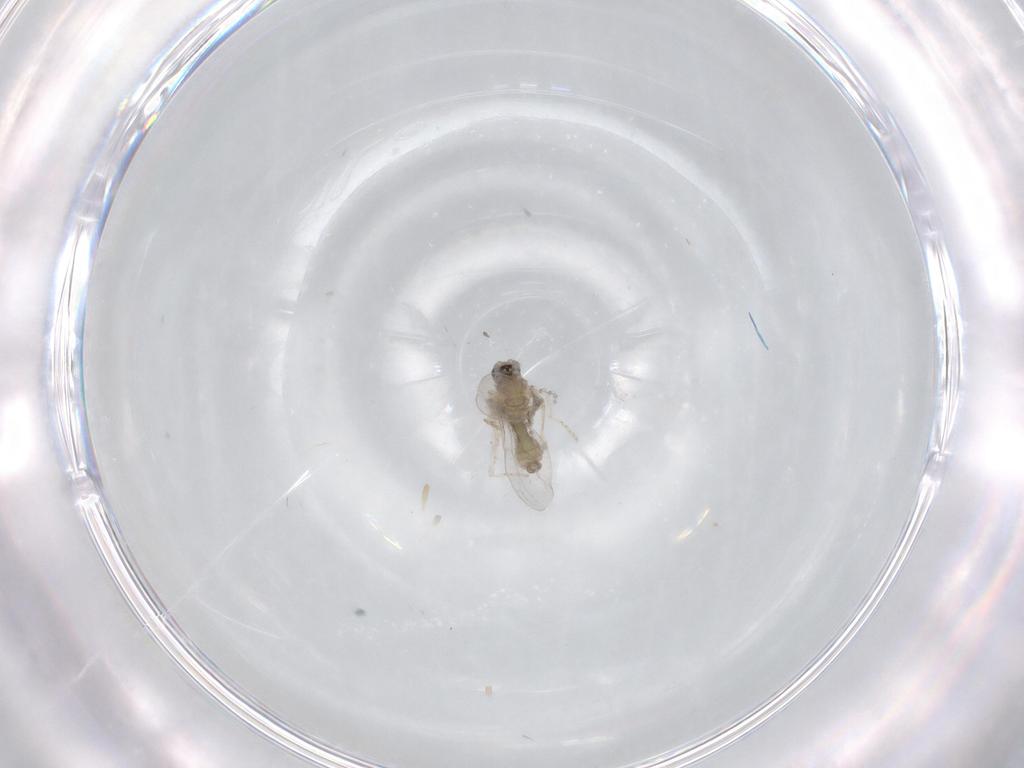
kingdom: Animalia
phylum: Arthropoda
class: Insecta
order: Diptera
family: Cecidomyiidae
